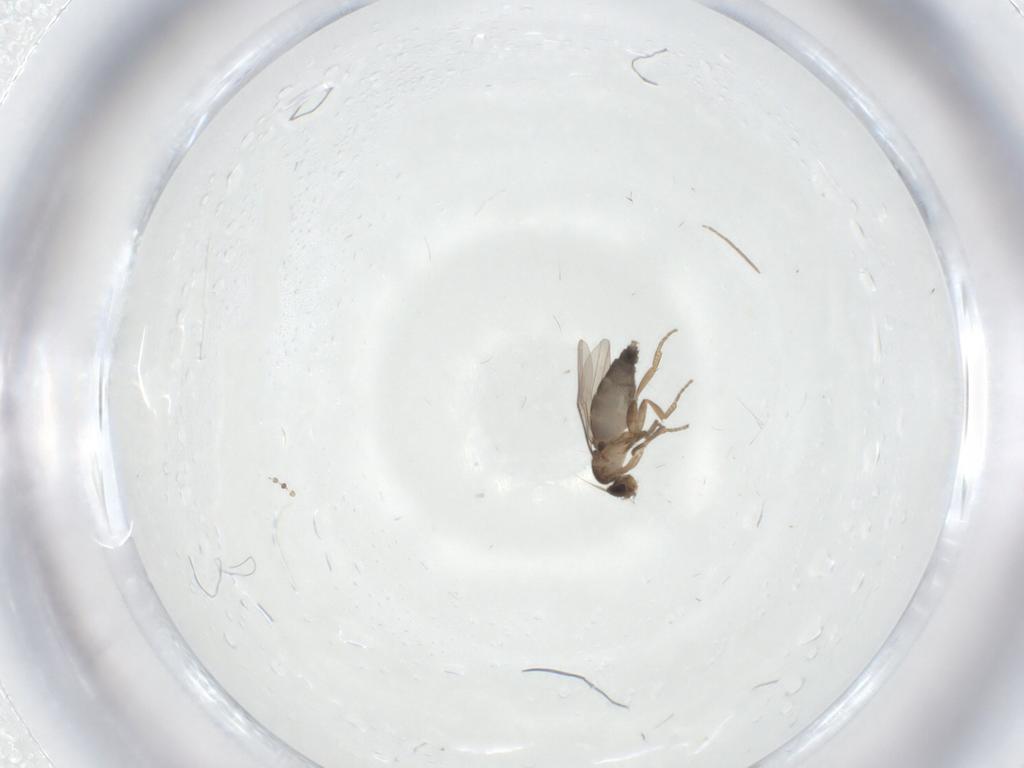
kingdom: Animalia
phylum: Arthropoda
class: Insecta
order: Diptera
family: Phoridae
